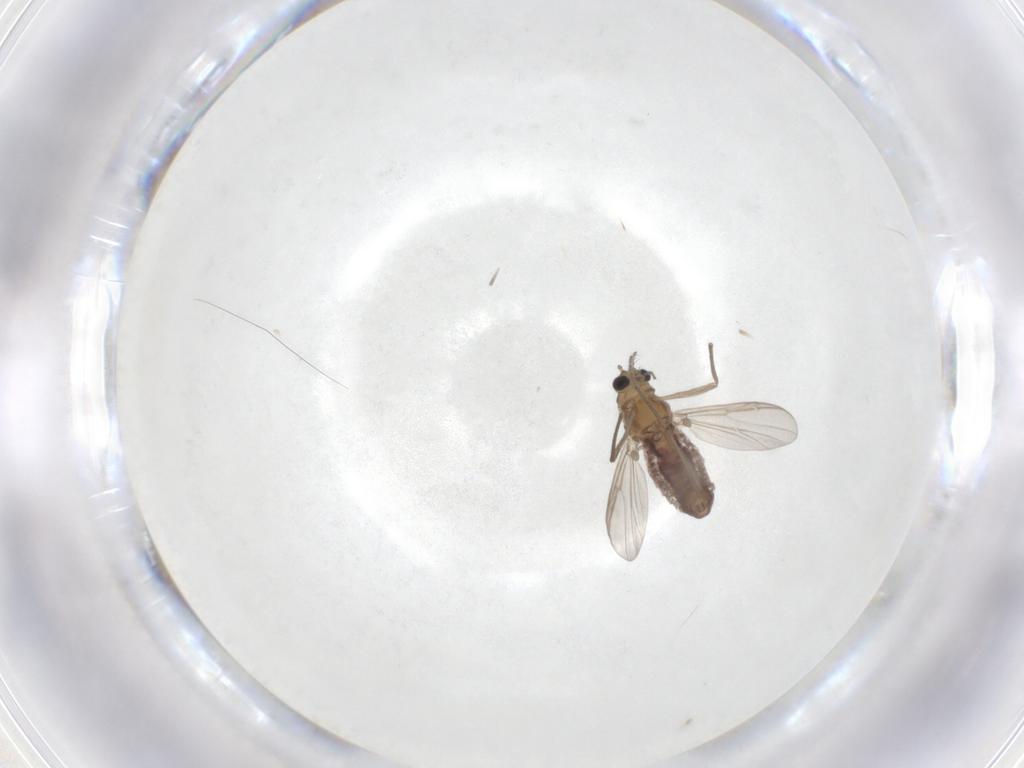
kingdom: Animalia
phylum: Arthropoda
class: Insecta
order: Diptera
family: Chironomidae
